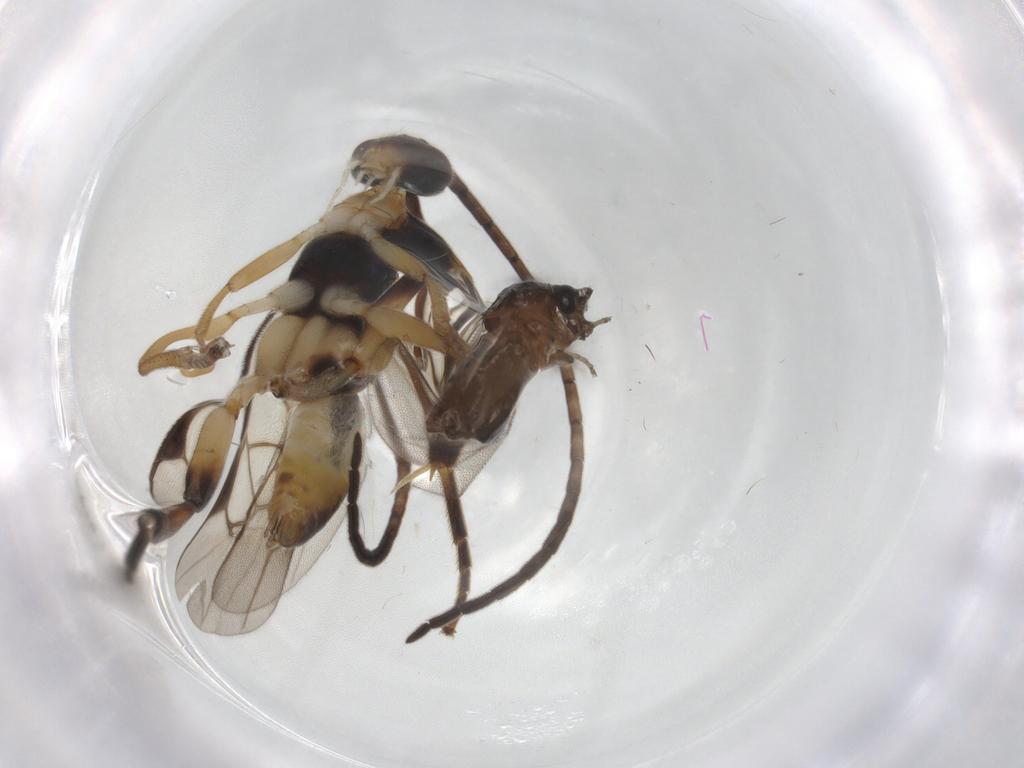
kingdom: Animalia
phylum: Arthropoda
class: Insecta
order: Hymenoptera
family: Braconidae
